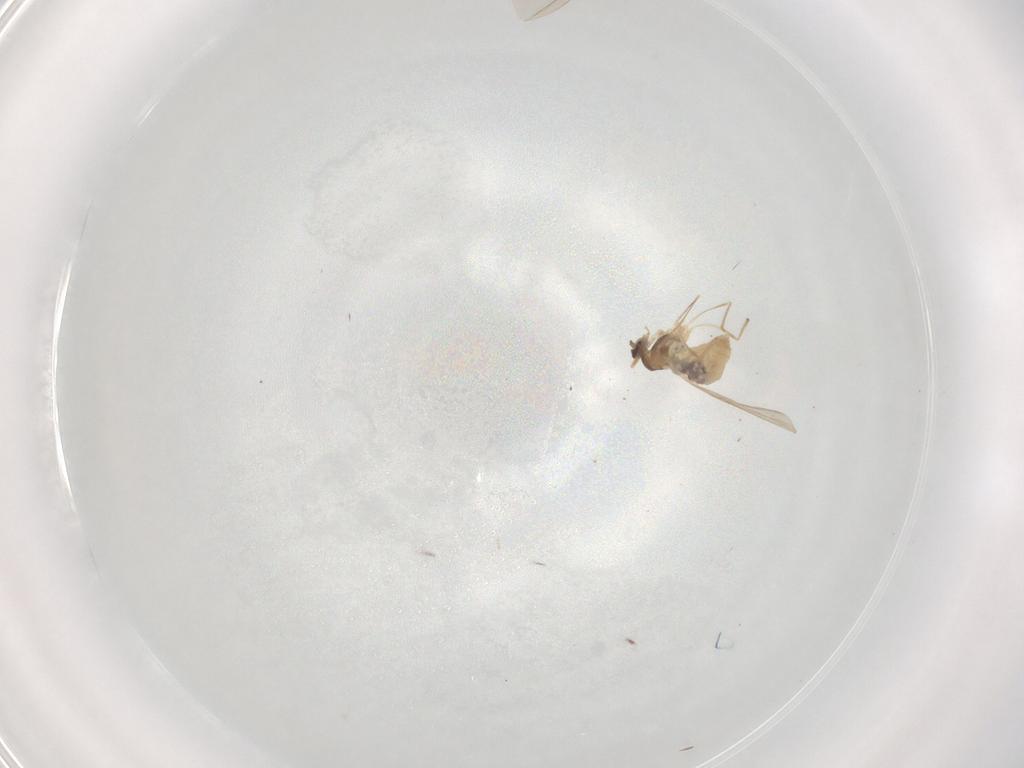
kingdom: Animalia
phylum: Arthropoda
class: Insecta
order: Diptera
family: Cecidomyiidae
